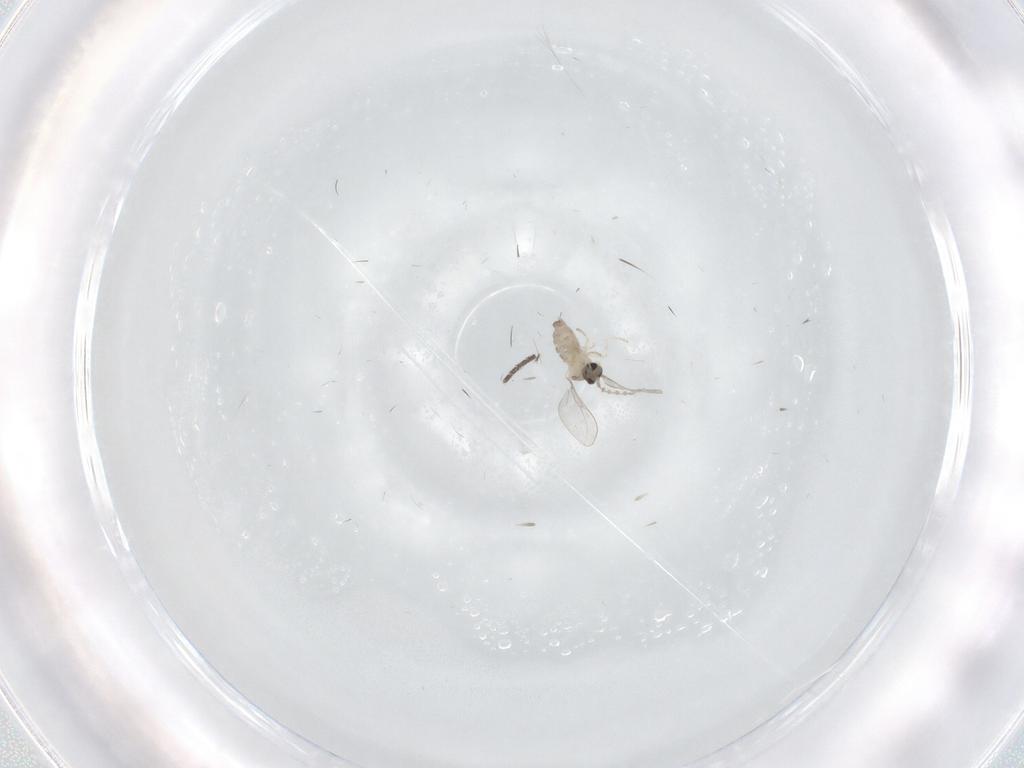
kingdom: Animalia
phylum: Arthropoda
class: Insecta
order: Diptera
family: Cecidomyiidae
